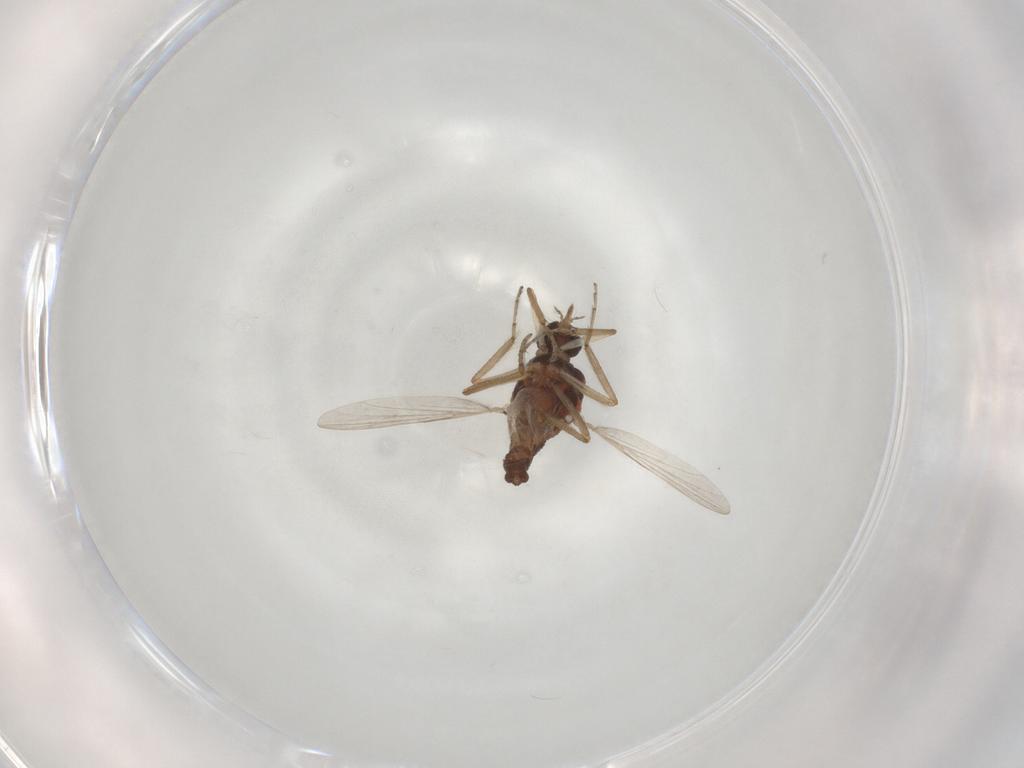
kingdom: Animalia
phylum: Arthropoda
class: Insecta
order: Diptera
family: Ceratopogonidae
